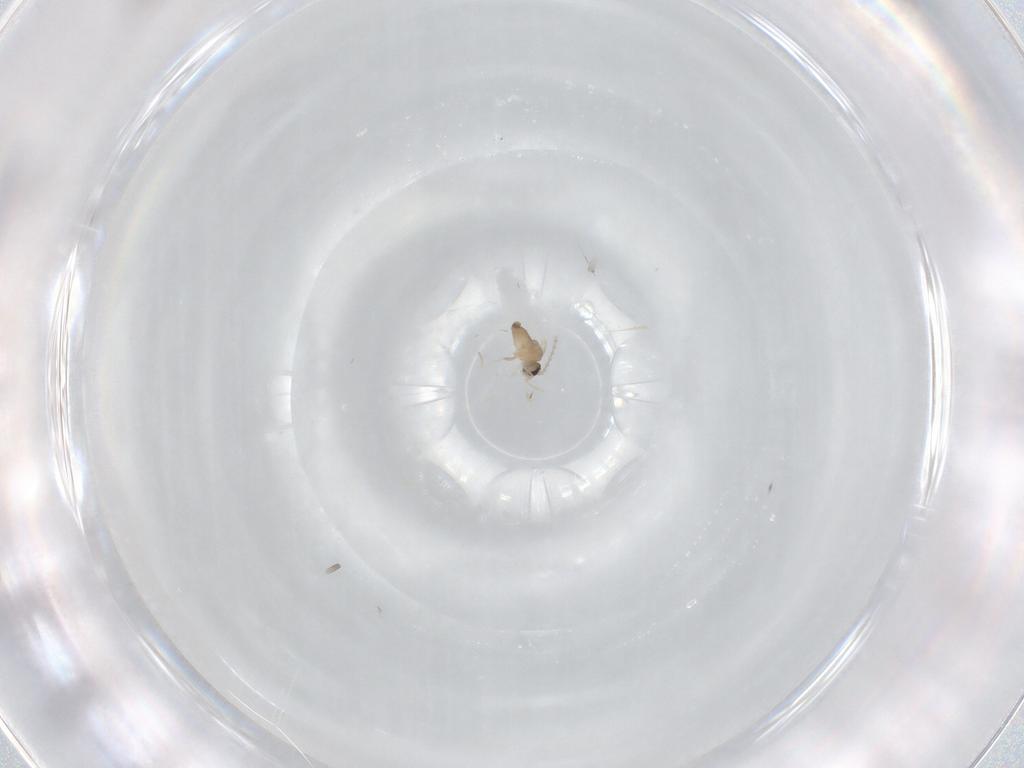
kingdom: Animalia
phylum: Arthropoda
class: Insecta
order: Diptera
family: Cecidomyiidae
